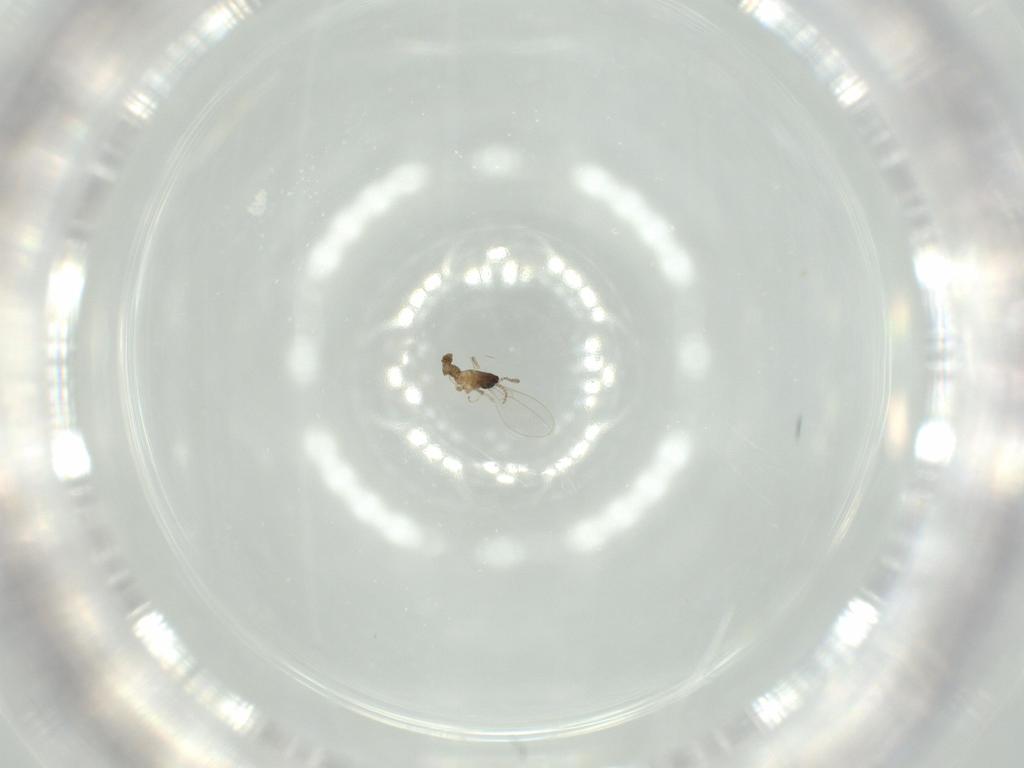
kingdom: Animalia
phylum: Arthropoda
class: Insecta
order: Diptera
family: Cecidomyiidae
